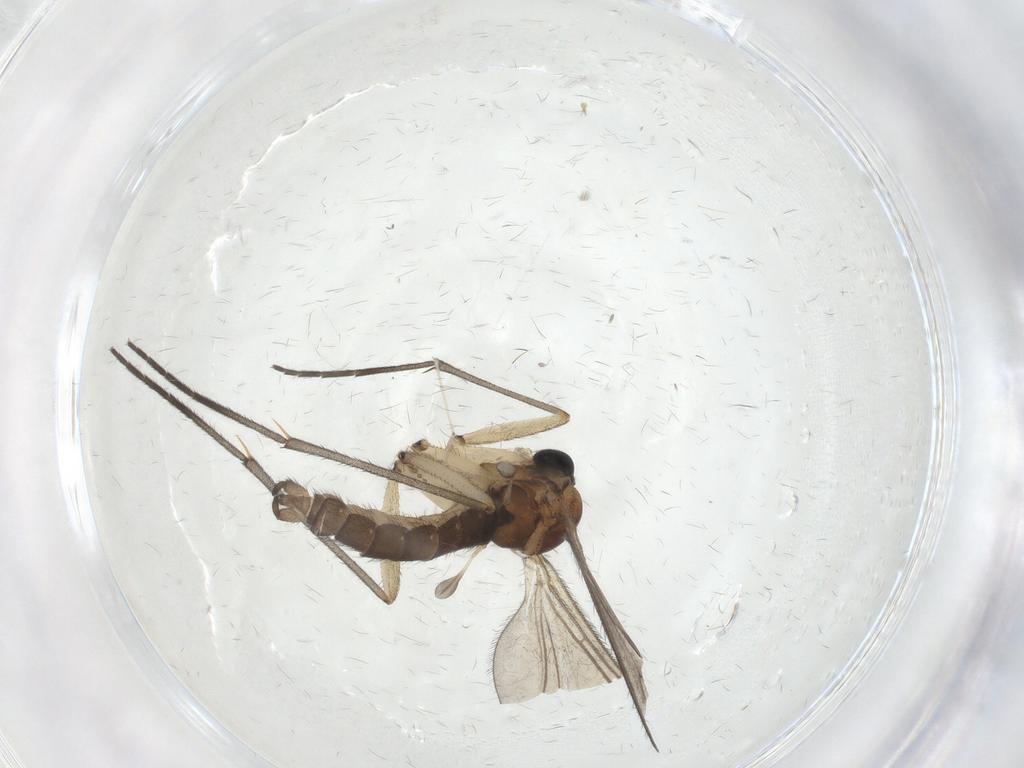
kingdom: Animalia
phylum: Arthropoda
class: Insecta
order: Diptera
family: Sciaridae
